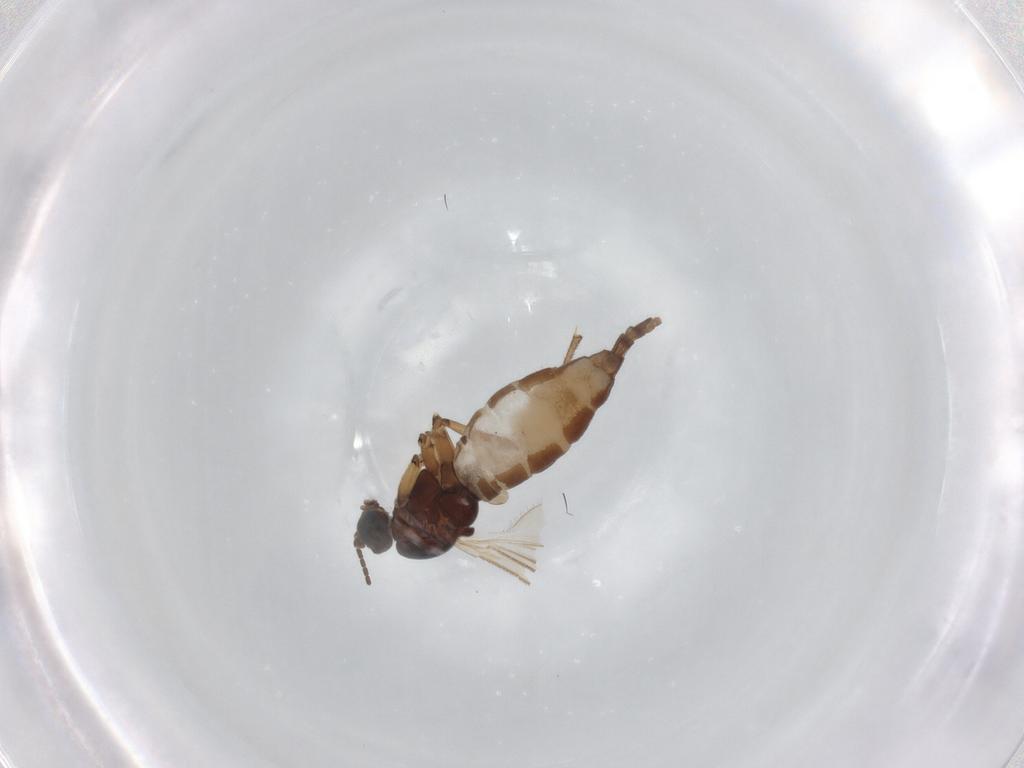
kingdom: Animalia
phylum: Arthropoda
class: Insecta
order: Diptera
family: Sciaridae
